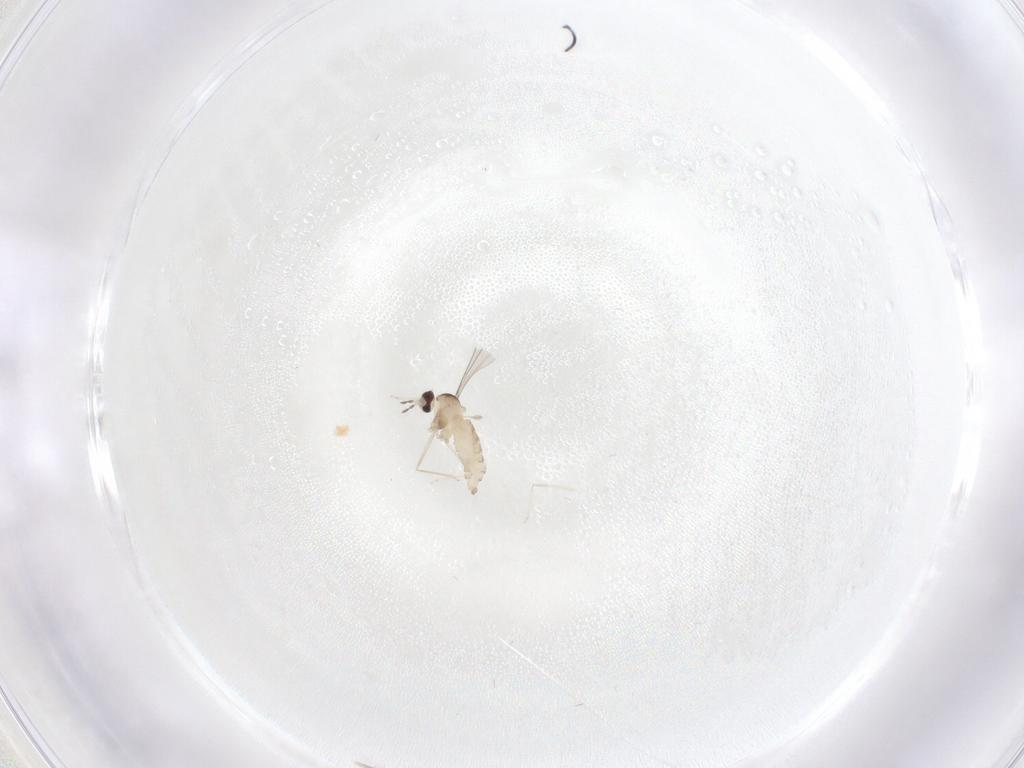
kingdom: Animalia
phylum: Arthropoda
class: Insecta
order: Diptera
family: Cecidomyiidae
